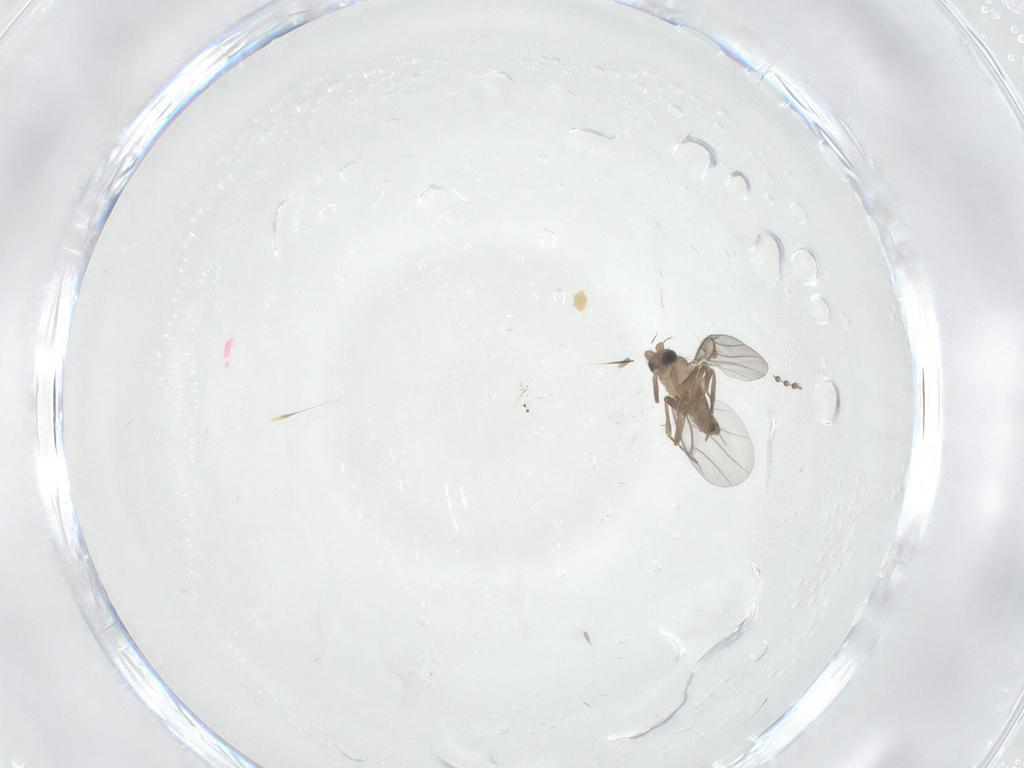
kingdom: Animalia
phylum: Arthropoda
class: Insecta
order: Diptera
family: Psychodidae
